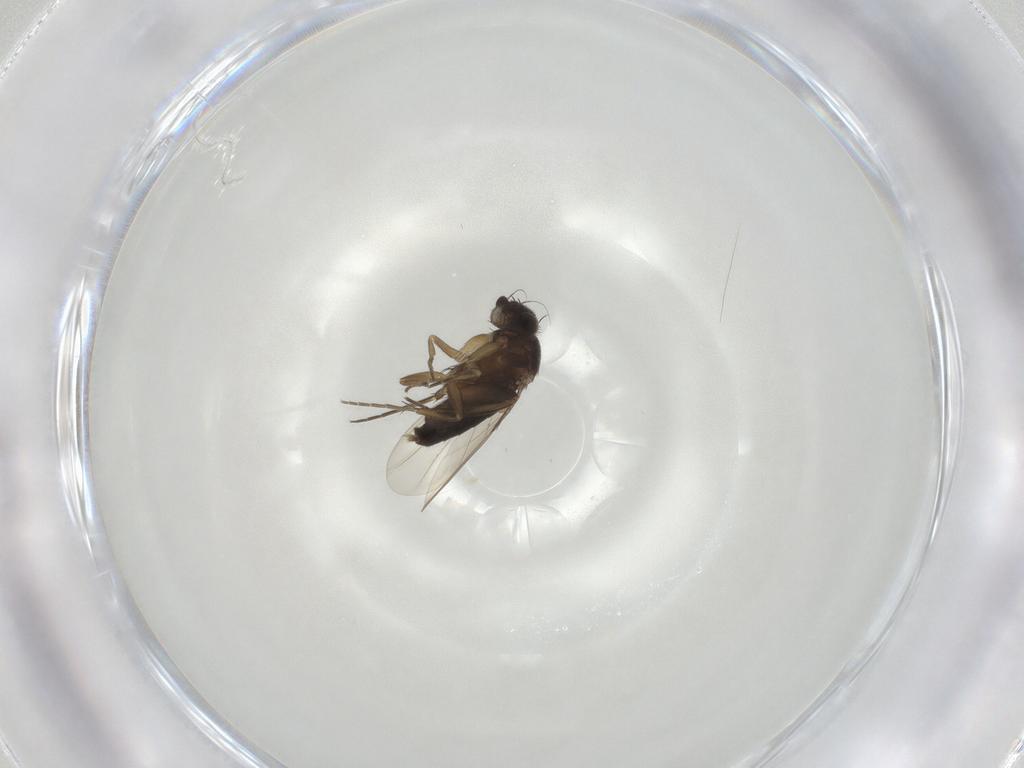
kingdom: Animalia
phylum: Arthropoda
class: Insecta
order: Diptera
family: Phoridae
